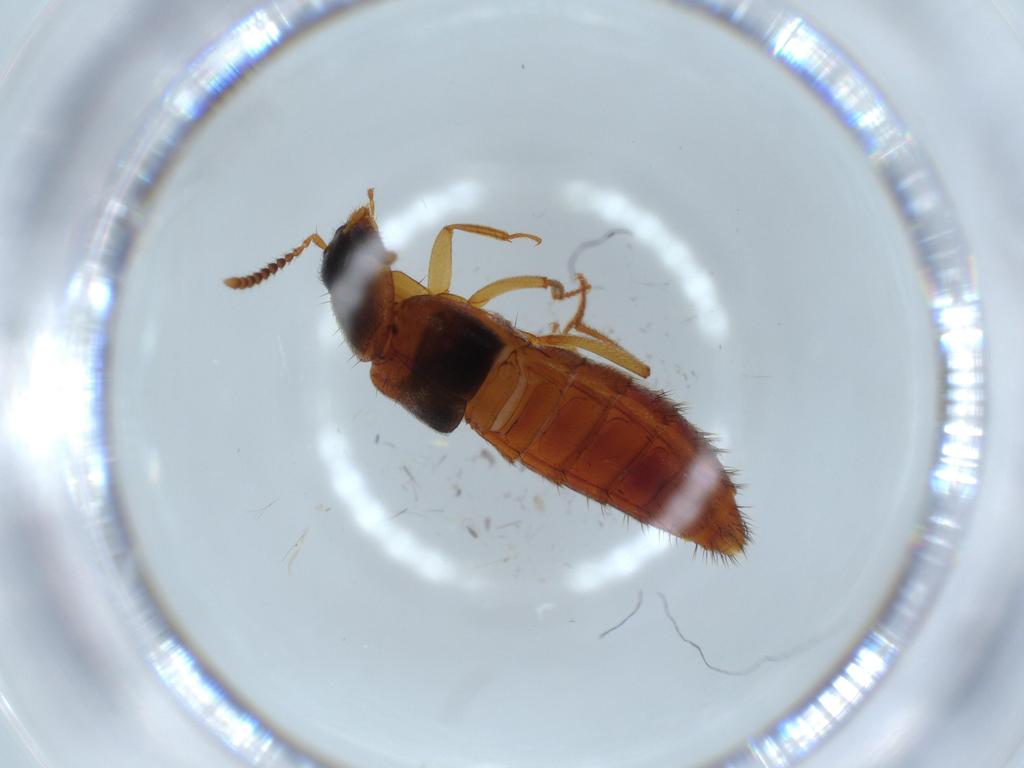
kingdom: Animalia
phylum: Arthropoda
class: Insecta
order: Coleoptera
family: Staphylinidae
